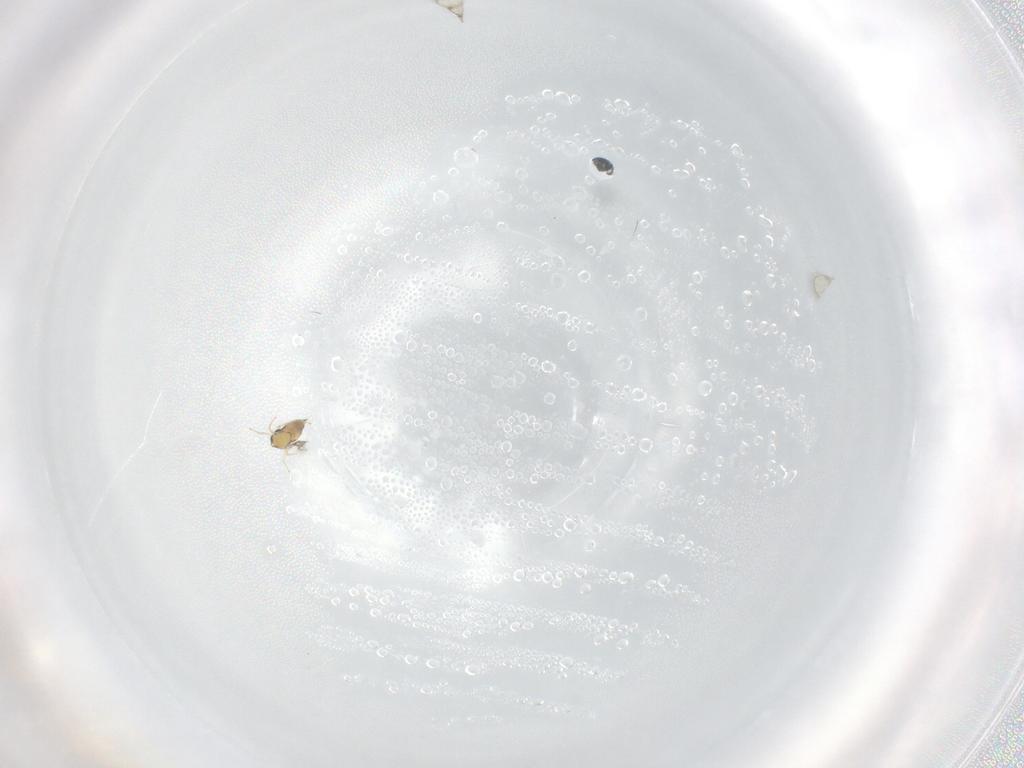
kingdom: Animalia
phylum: Arthropoda
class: Insecta
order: Hymenoptera
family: Trichogrammatidae
